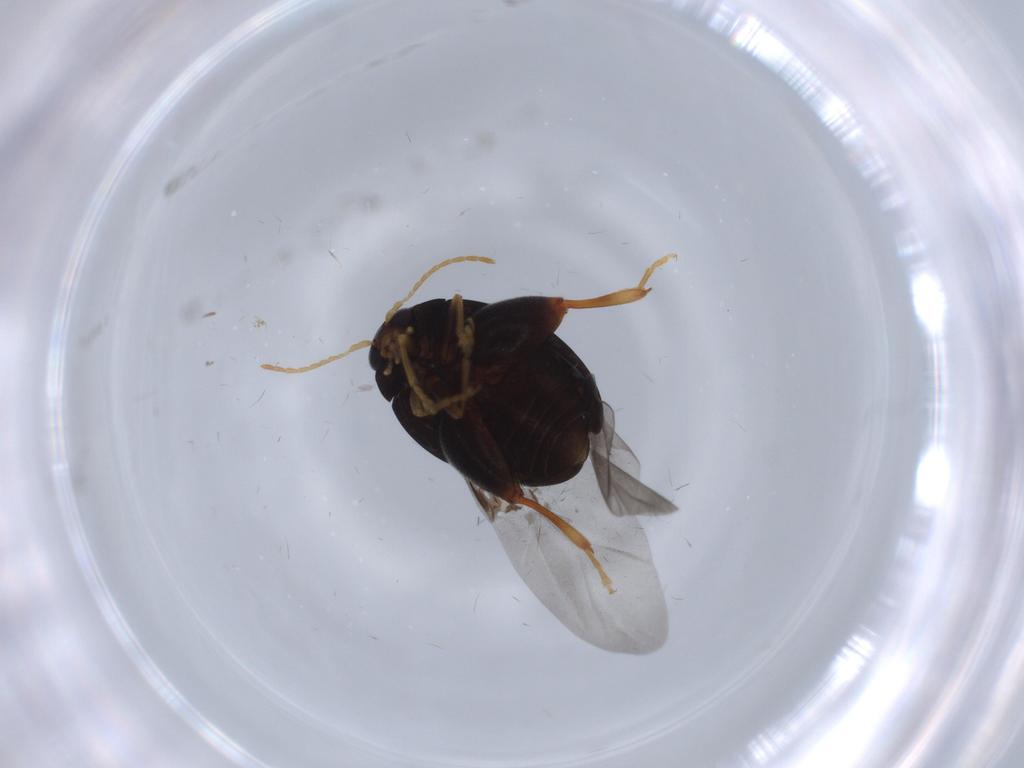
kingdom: Animalia
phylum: Arthropoda
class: Insecta
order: Coleoptera
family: Chrysomelidae
